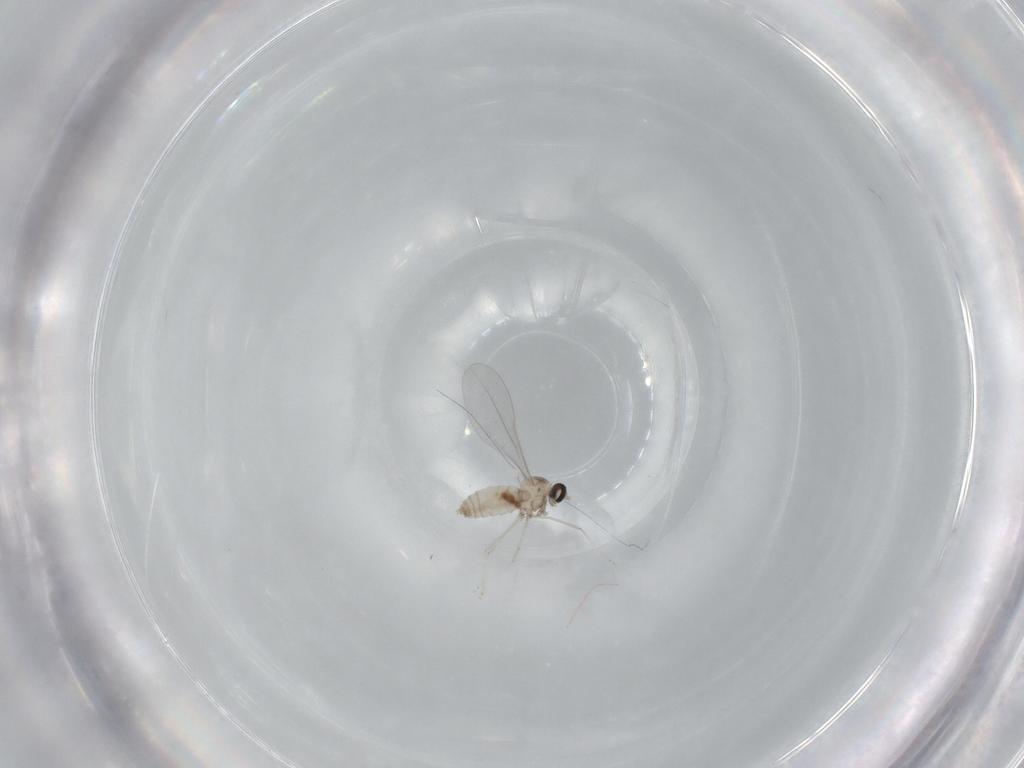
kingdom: Animalia
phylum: Arthropoda
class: Insecta
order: Diptera
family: Cecidomyiidae
